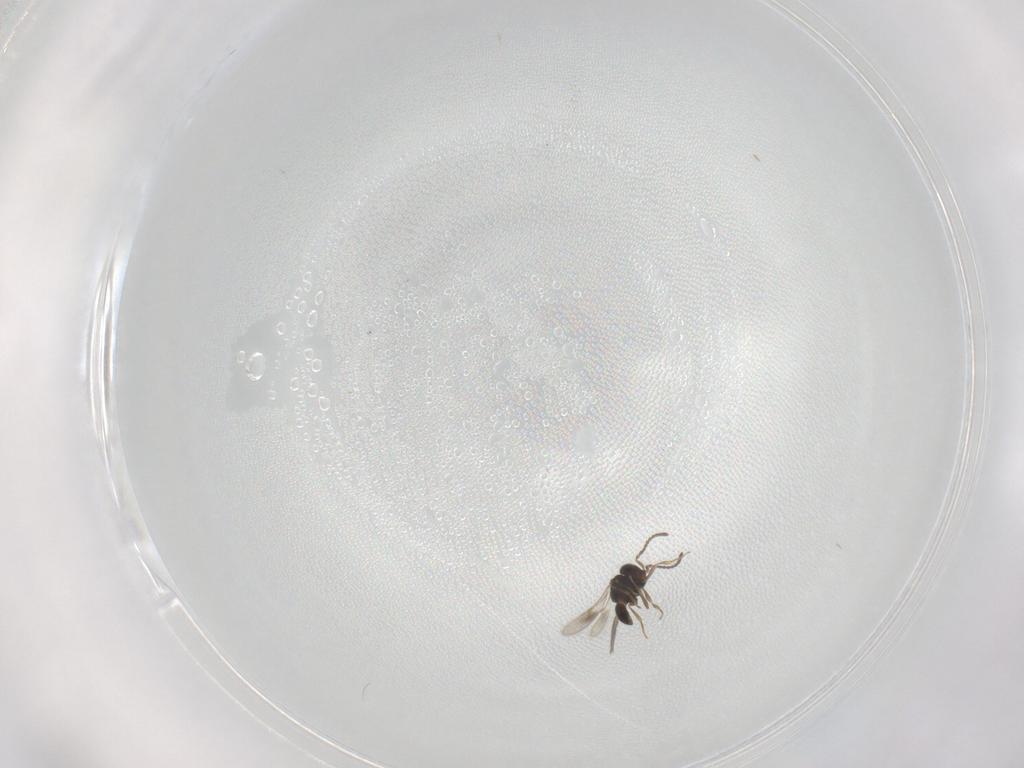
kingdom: Animalia
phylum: Arthropoda
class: Insecta
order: Hymenoptera
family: Scelionidae
